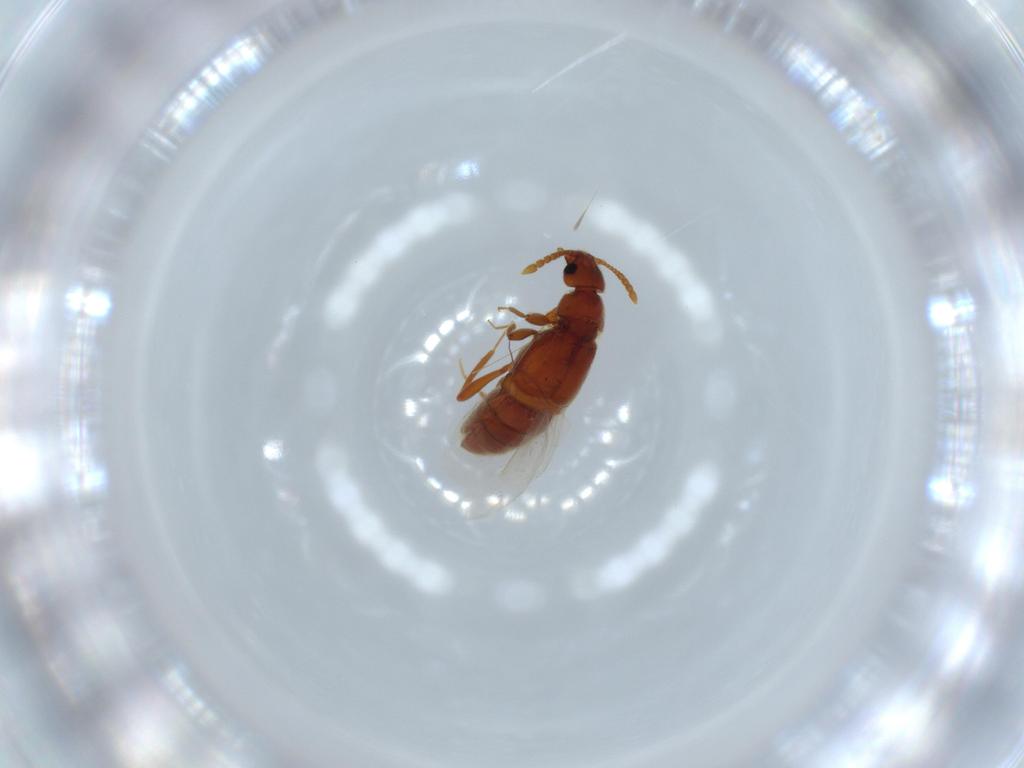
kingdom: Animalia
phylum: Arthropoda
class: Insecta
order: Coleoptera
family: Staphylinidae
